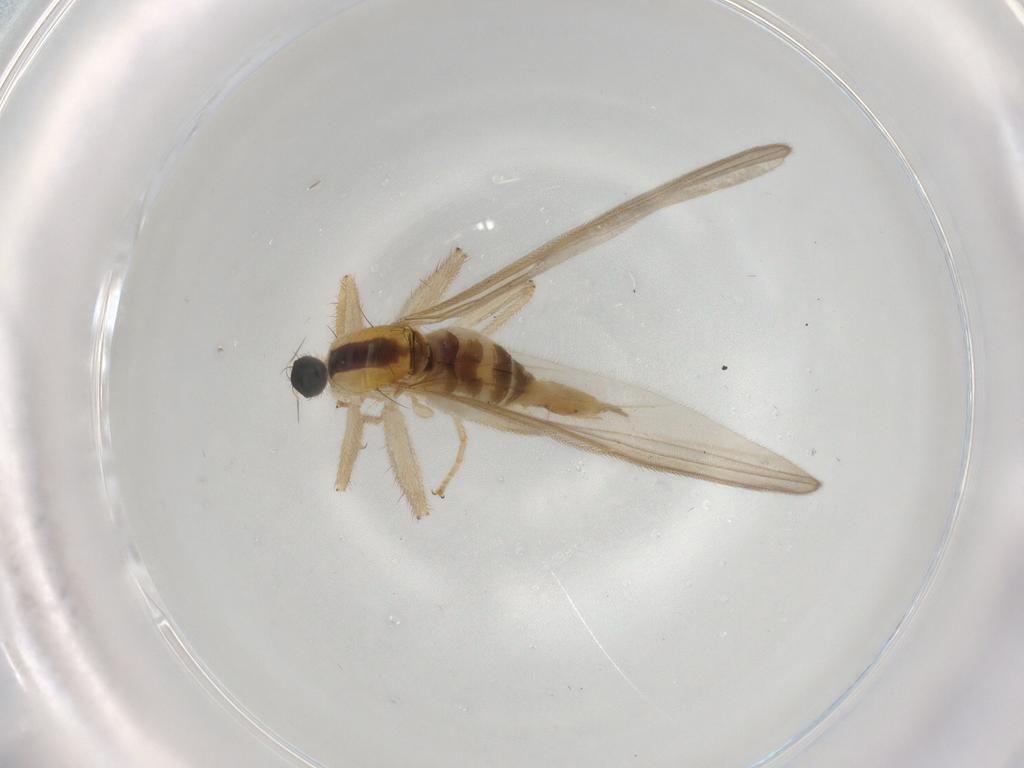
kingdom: Animalia
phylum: Arthropoda
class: Insecta
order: Diptera
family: Hybotidae
